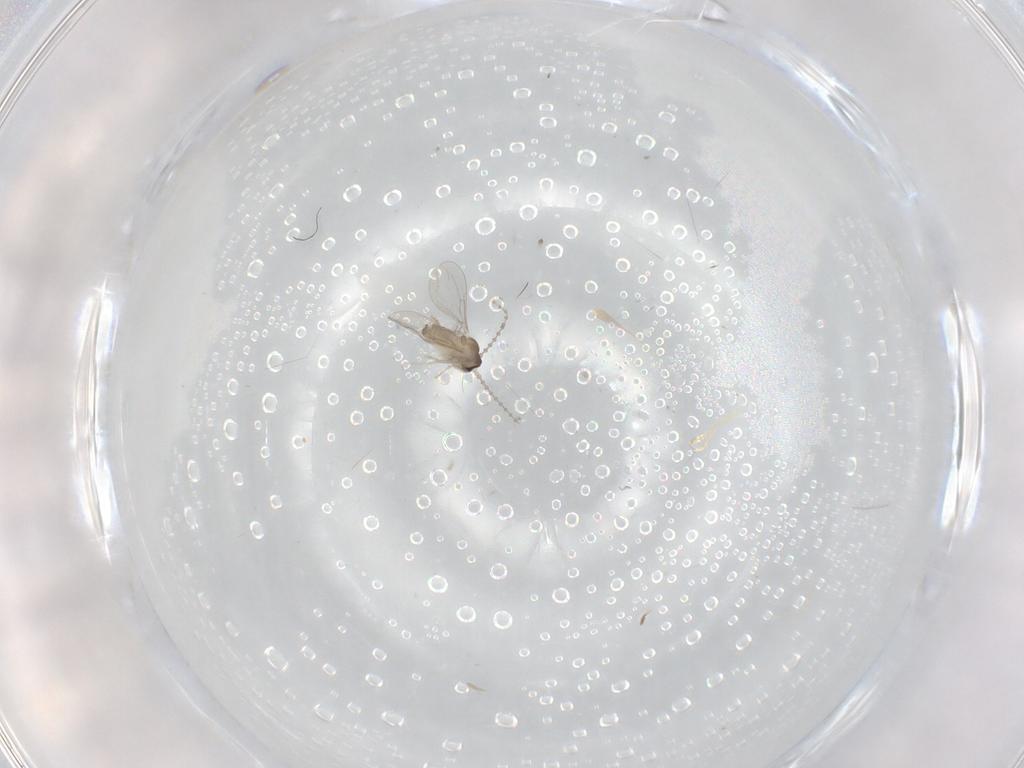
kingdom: Animalia
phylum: Arthropoda
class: Insecta
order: Diptera
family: Cecidomyiidae
